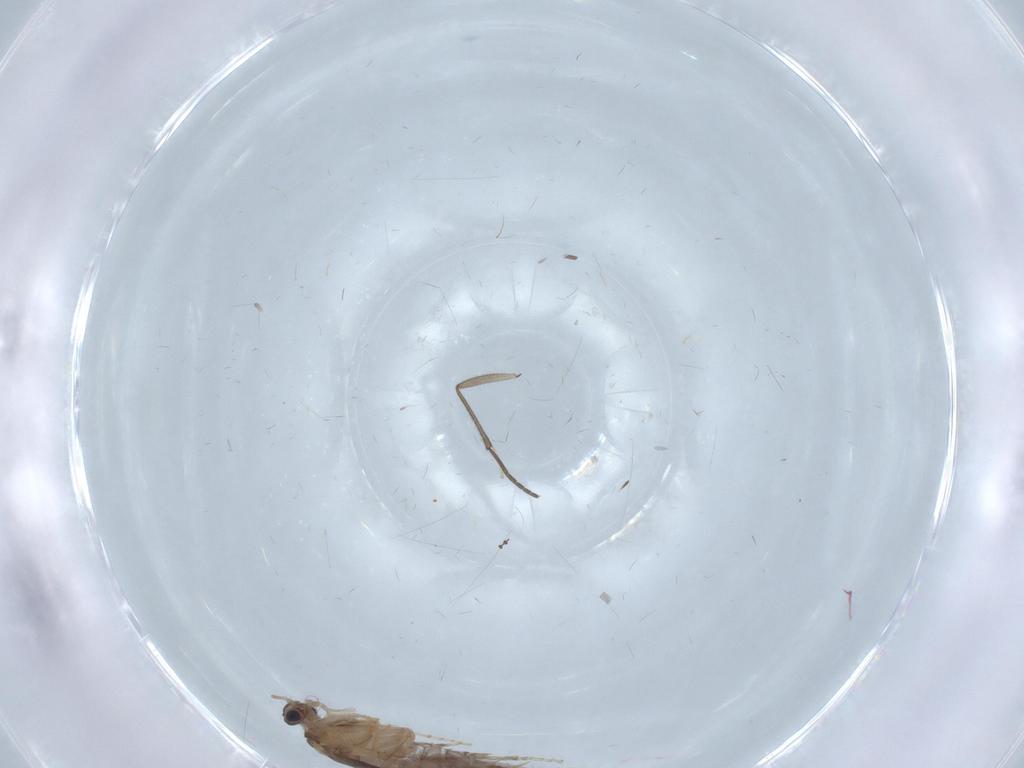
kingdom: Animalia
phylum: Arthropoda
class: Insecta
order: Trichoptera
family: Hydroptilidae
